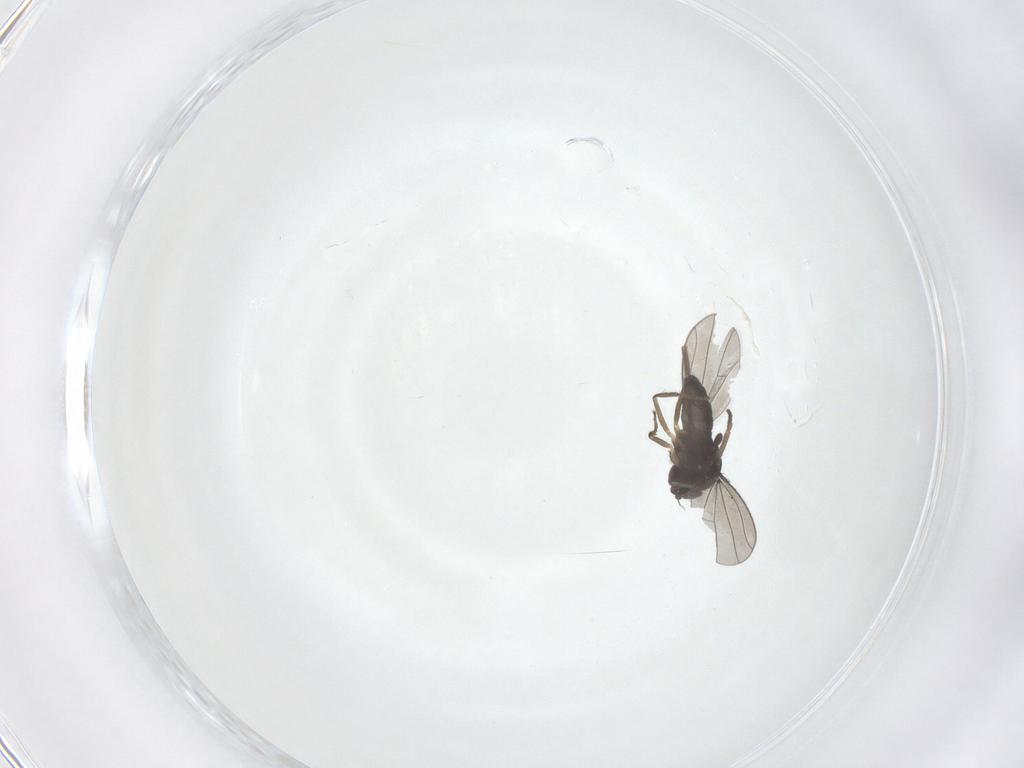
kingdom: Animalia
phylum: Arthropoda
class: Insecta
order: Diptera
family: Dolichopodidae
